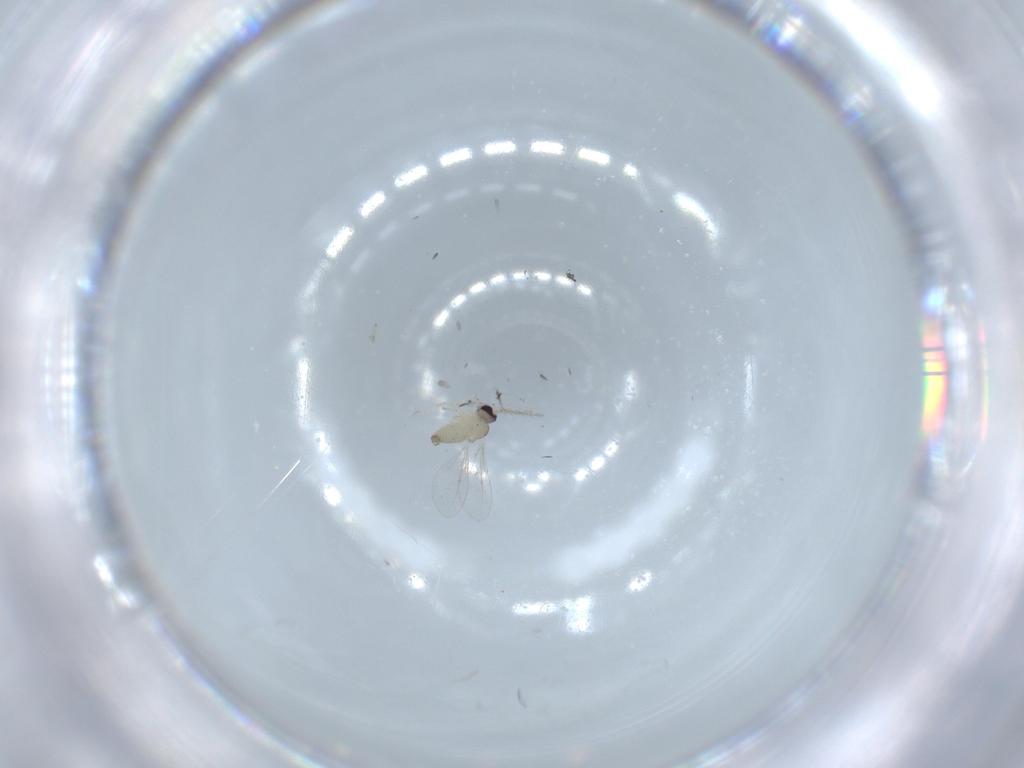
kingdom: Animalia
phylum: Arthropoda
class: Insecta
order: Diptera
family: Cecidomyiidae
